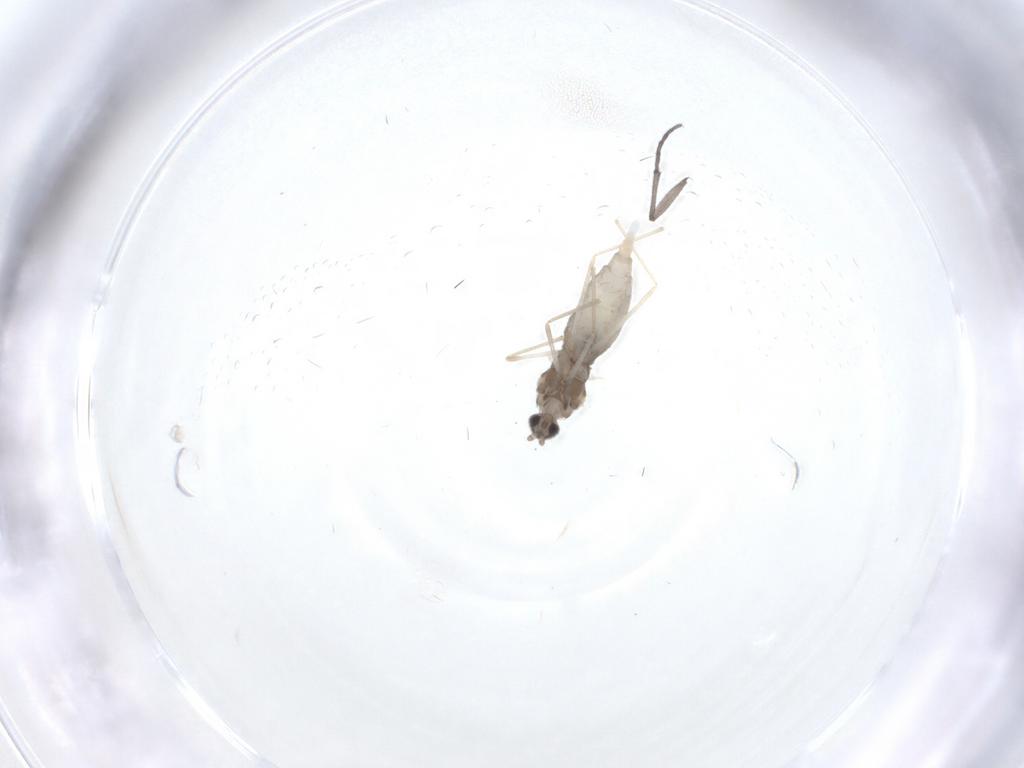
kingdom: Animalia
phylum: Arthropoda
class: Insecta
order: Diptera
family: Cecidomyiidae
